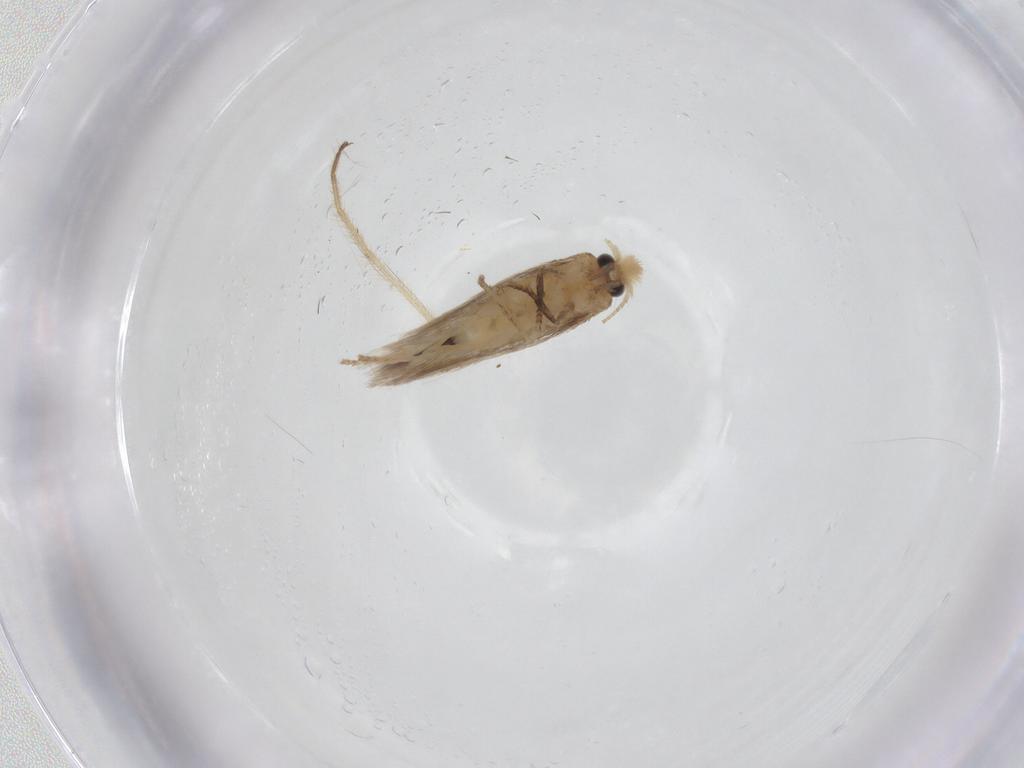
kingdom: Animalia
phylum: Arthropoda
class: Insecta
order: Lepidoptera
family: Nepticulidae
